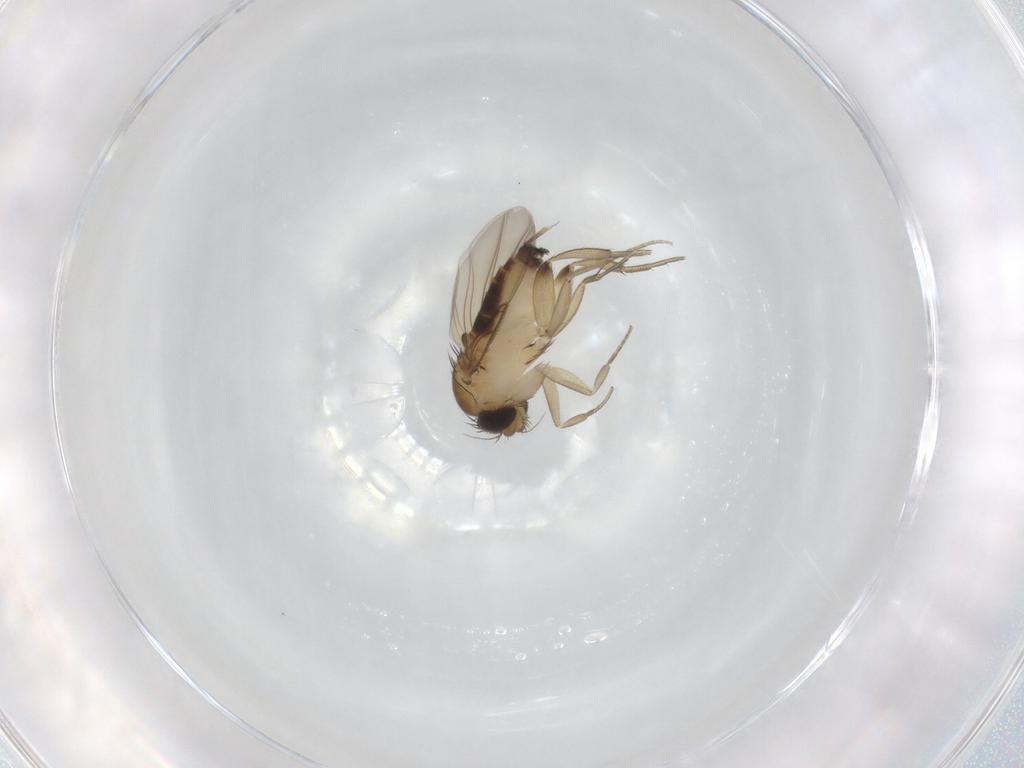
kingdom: Animalia
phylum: Arthropoda
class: Insecta
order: Diptera
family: Phoridae
